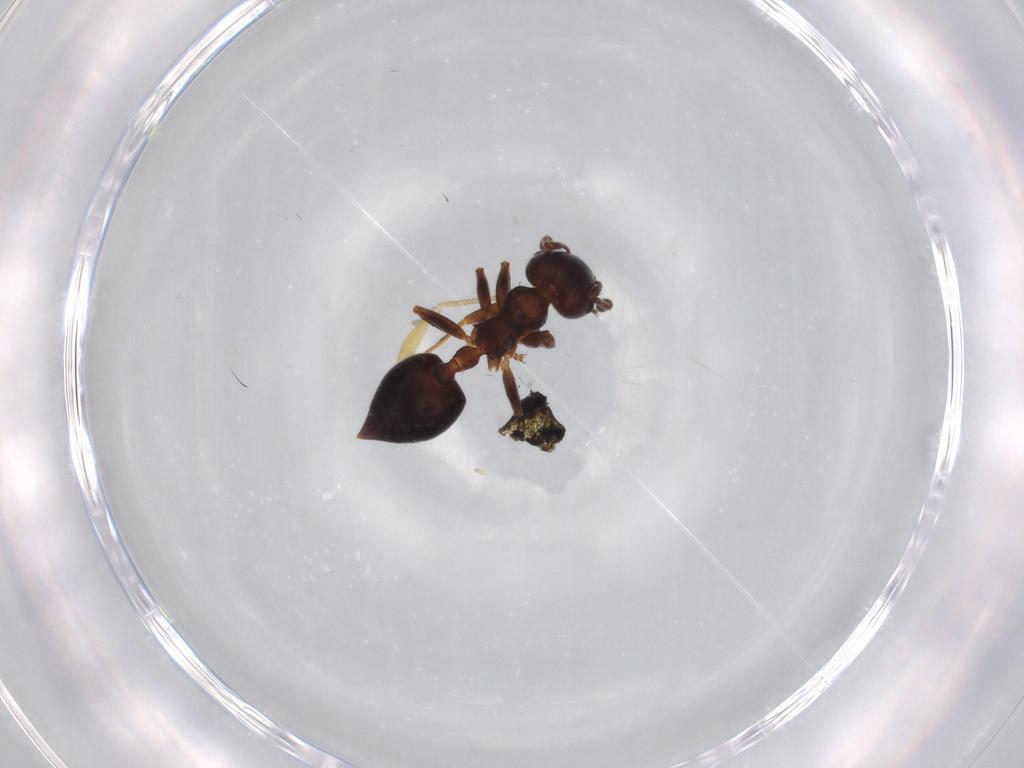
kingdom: Animalia
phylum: Arthropoda
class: Insecta
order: Hymenoptera
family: Formicidae
